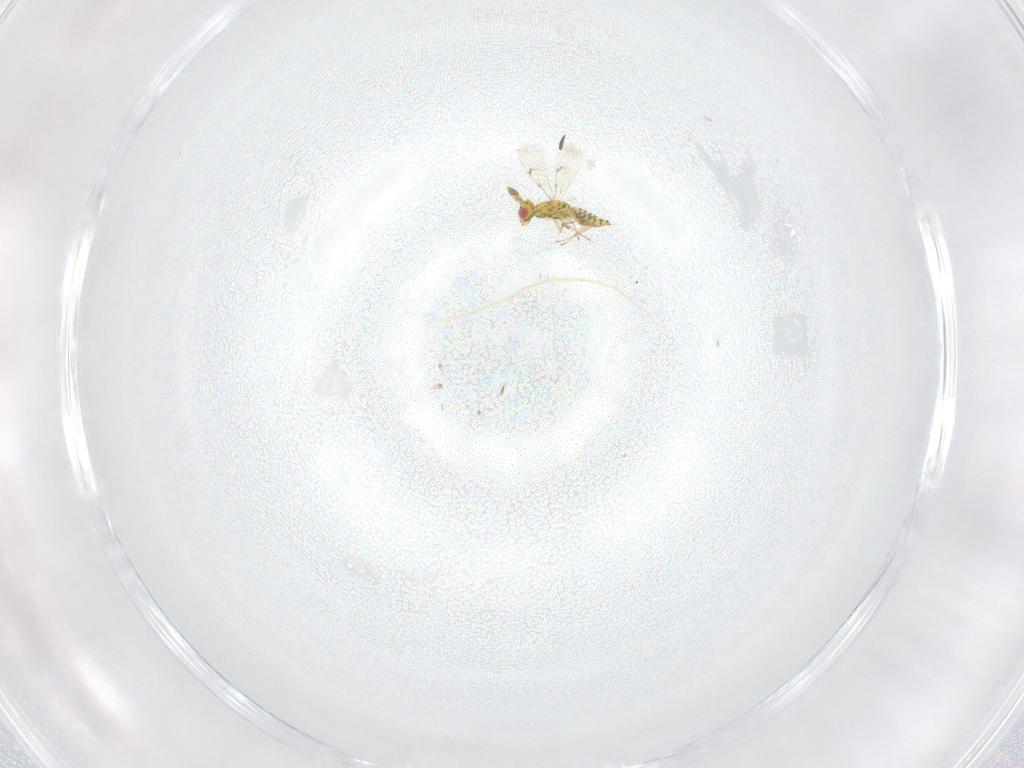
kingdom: Animalia
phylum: Arthropoda
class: Insecta
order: Hymenoptera
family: Eulophidae
